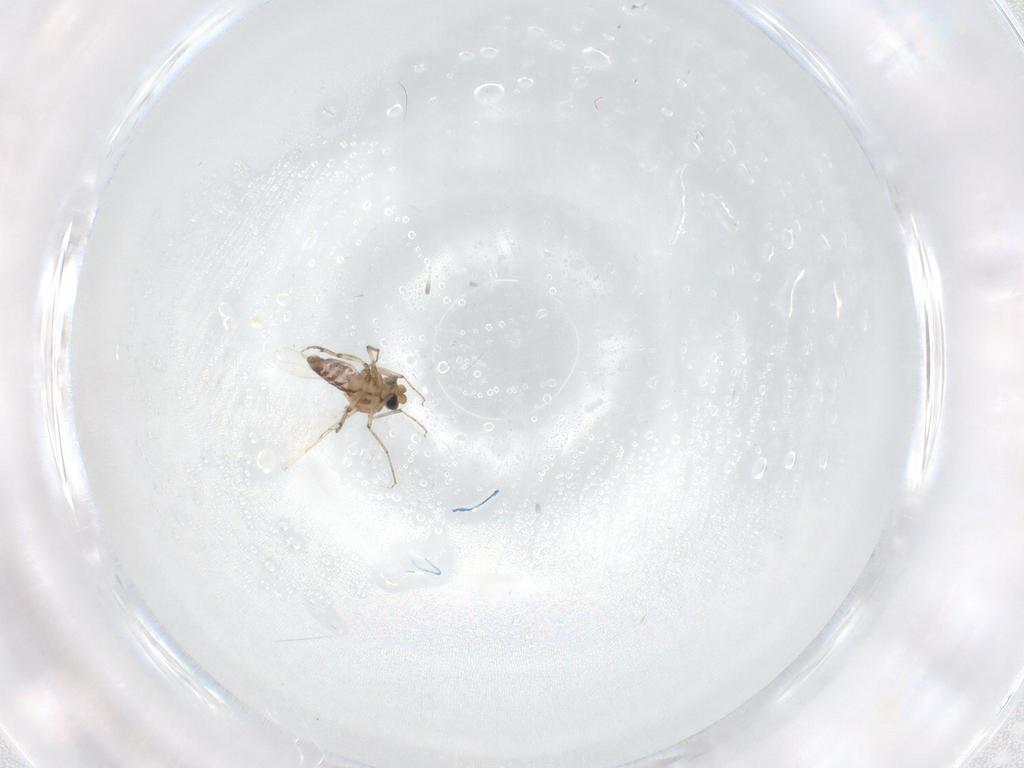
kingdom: Animalia
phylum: Arthropoda
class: Insecta
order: Diptera
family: Ceratopogonidae
